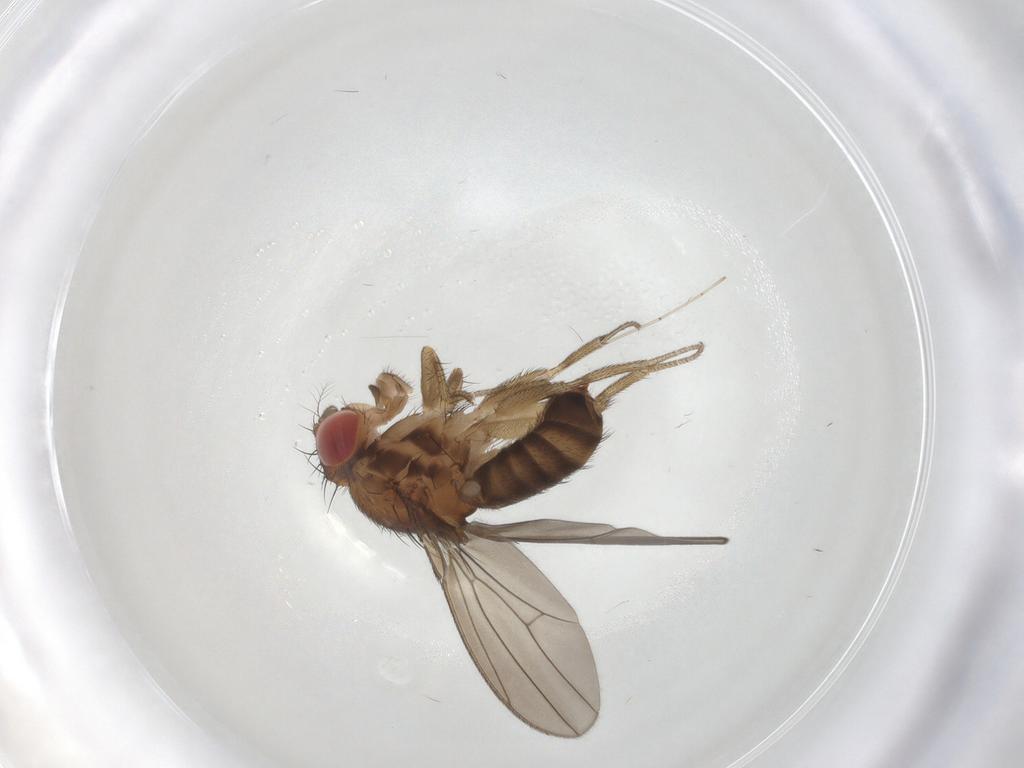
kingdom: Animalia
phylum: Arthropoda
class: Insecta
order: Diptera
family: Drosophilidae
